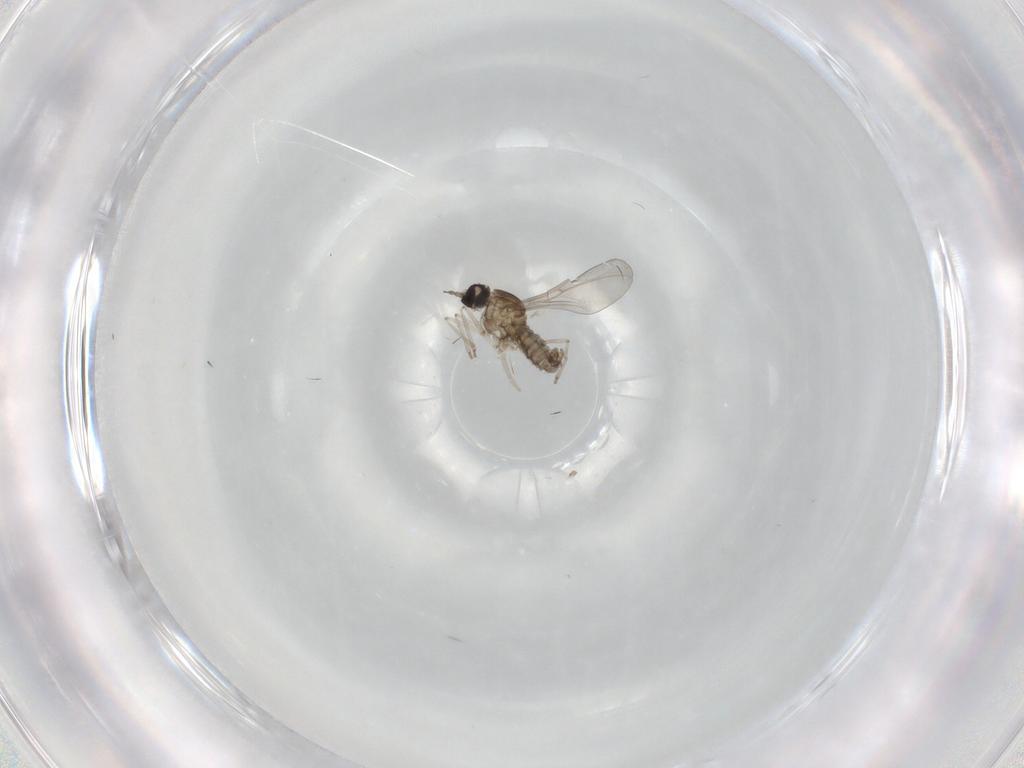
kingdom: Animalia
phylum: Arthropoda
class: Insecta
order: Diptera
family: Cecidomyiidae
